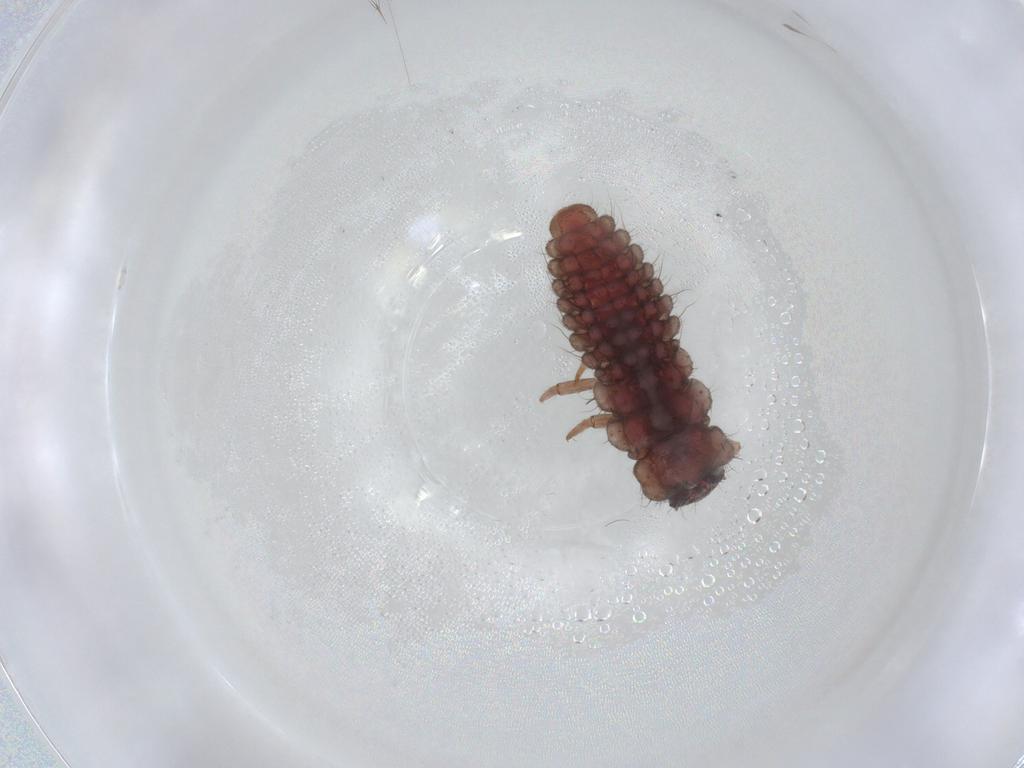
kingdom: Animalia
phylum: Arthropoda
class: Insecta
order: Coleoptera
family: Coccinellidae
